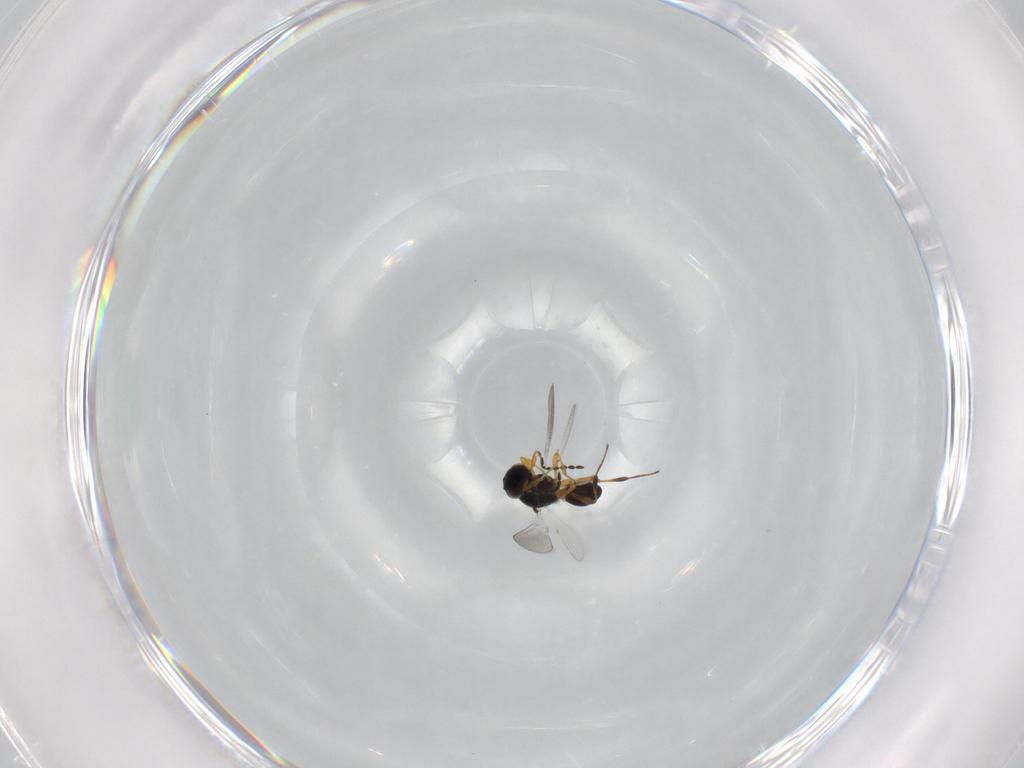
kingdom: Animalia
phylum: Arthropoda
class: Insecta
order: Hymenoptera
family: Platygastridae
